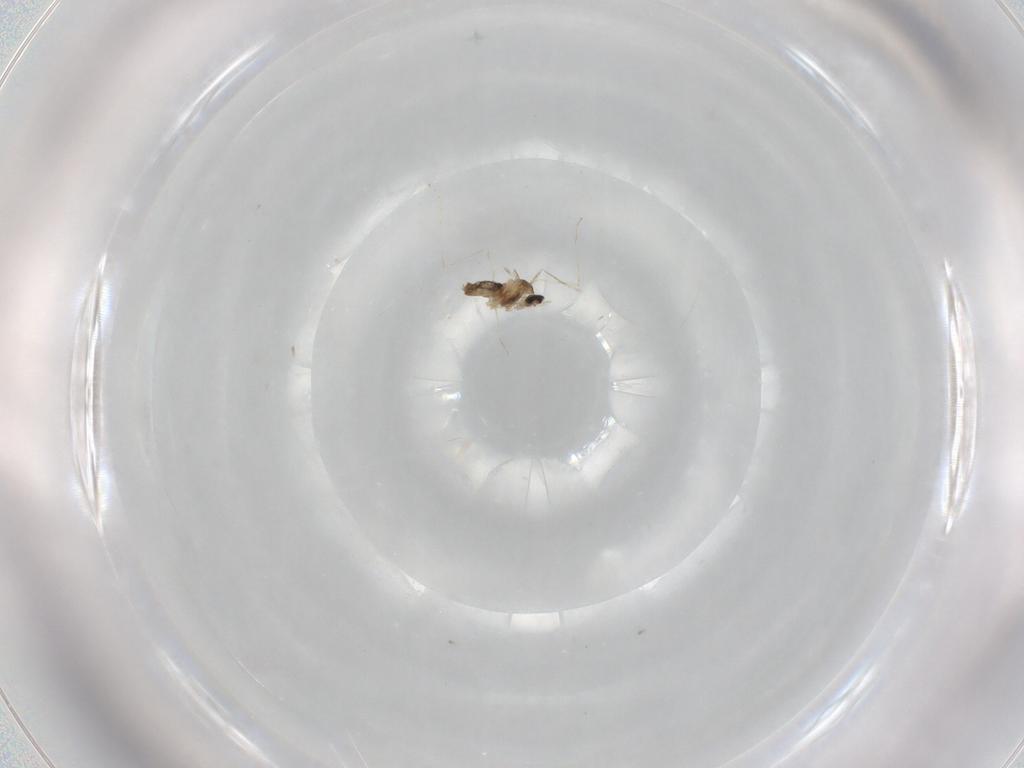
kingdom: Animalia
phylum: Arthropoda
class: Insecta
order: Diptera
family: Cecidomyiidae
